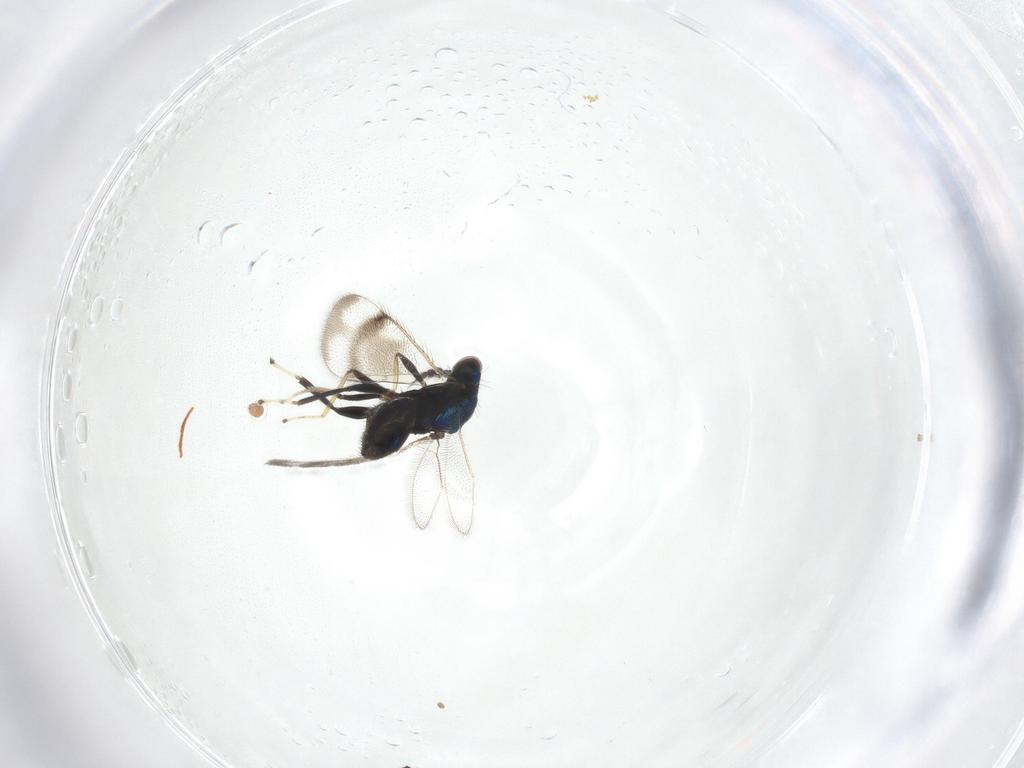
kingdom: Animalia
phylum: Arthropoda
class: Insecta
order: Hymenoptera
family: Eulophidae
